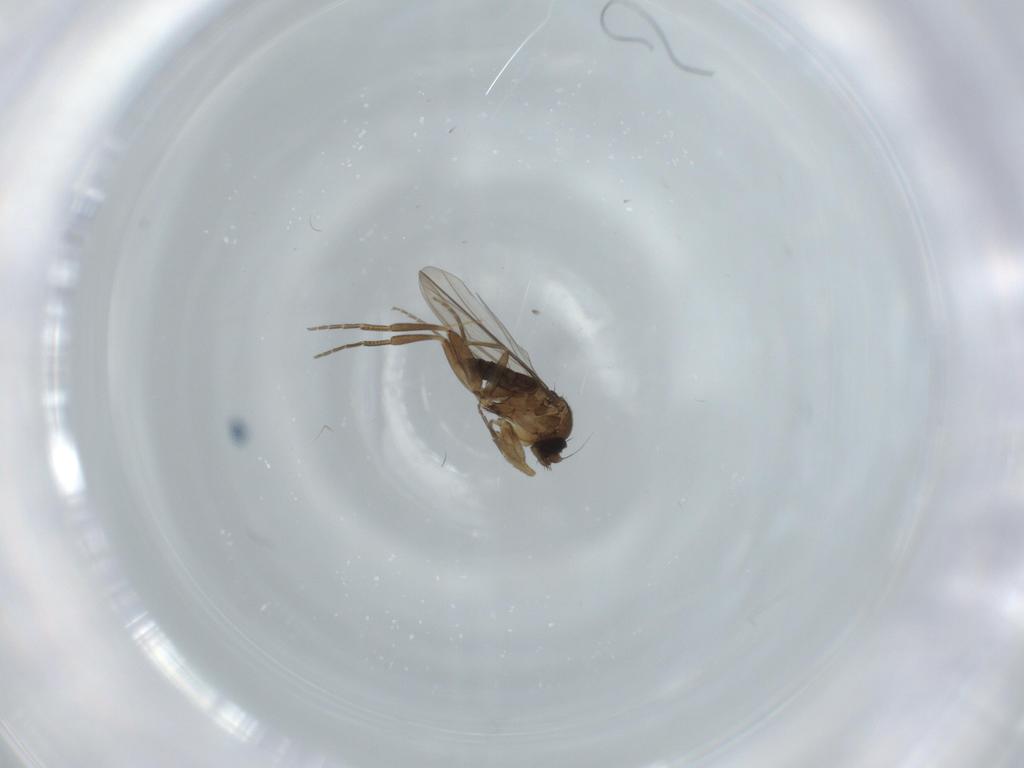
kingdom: Animalia
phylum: Arthropoda
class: Insecta
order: Diptera
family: Phoridae
